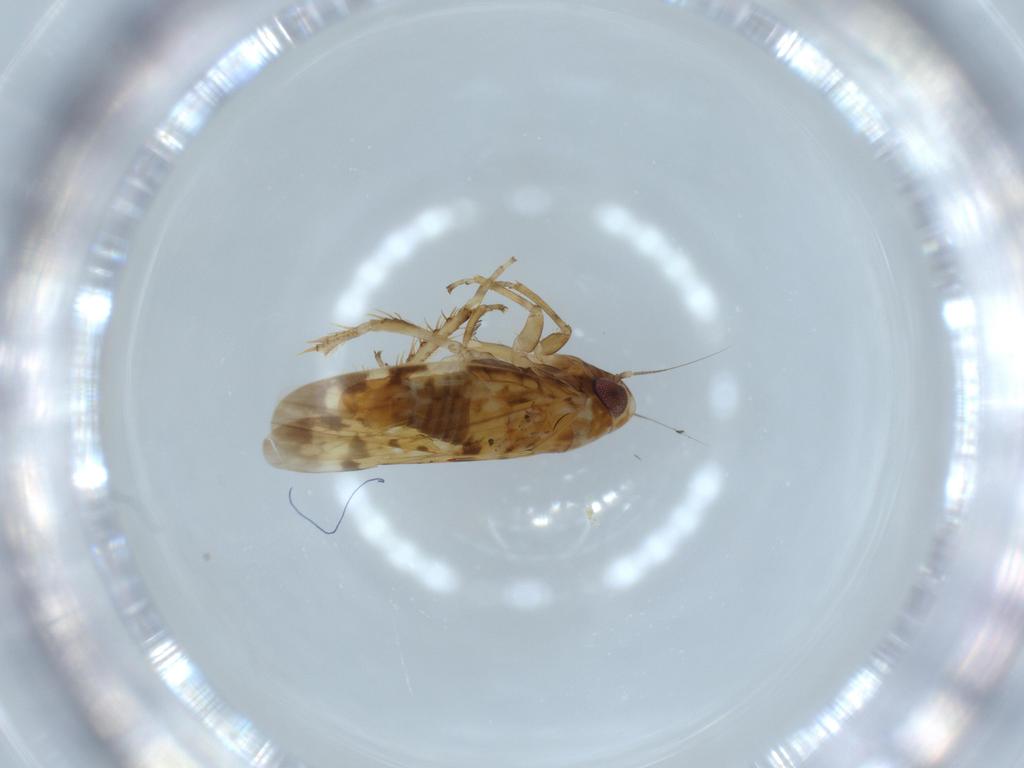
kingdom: Animalia
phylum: Arthropoda
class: Insecta
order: Hemiptera
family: Cicadellidae
